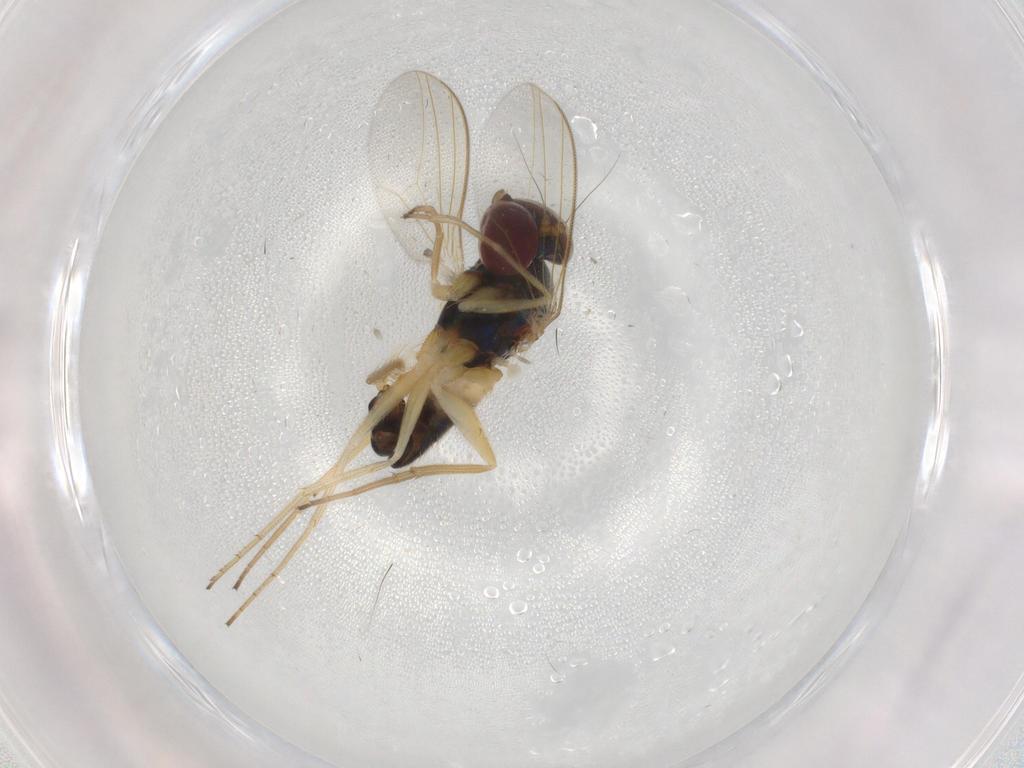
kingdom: Animalia
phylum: Arthropoda
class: Insecta
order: Diptera
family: Dolichopodidae
